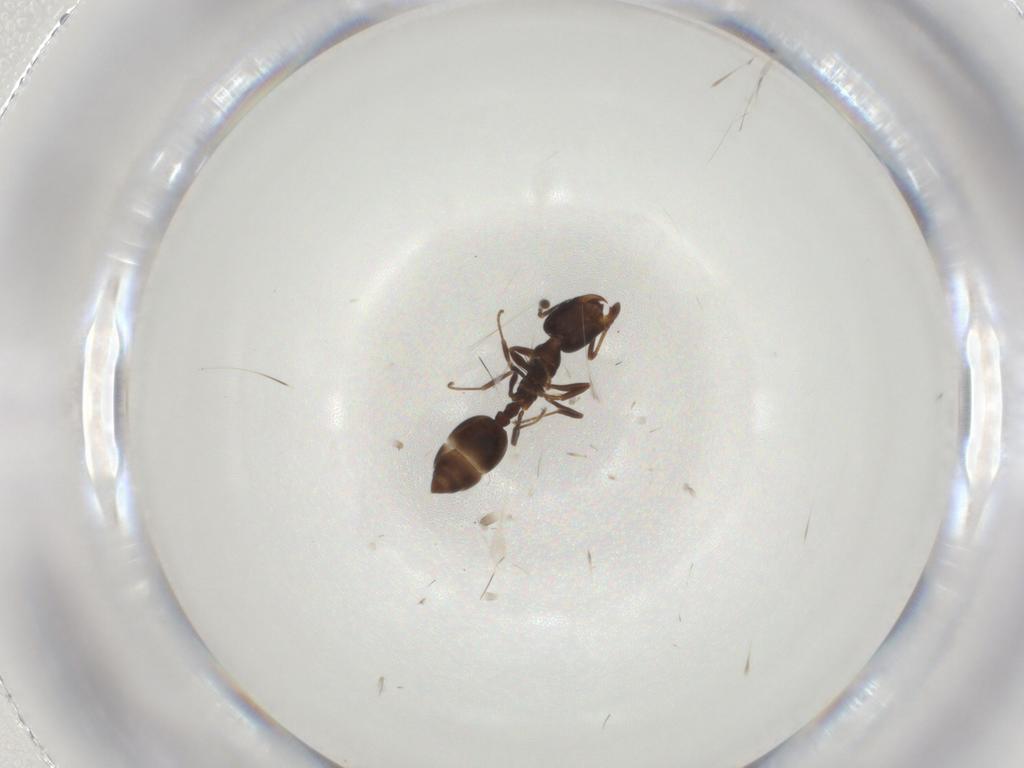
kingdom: Animalia
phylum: Arthropoda
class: Insecta
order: Hymenoptera
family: Formicidae
